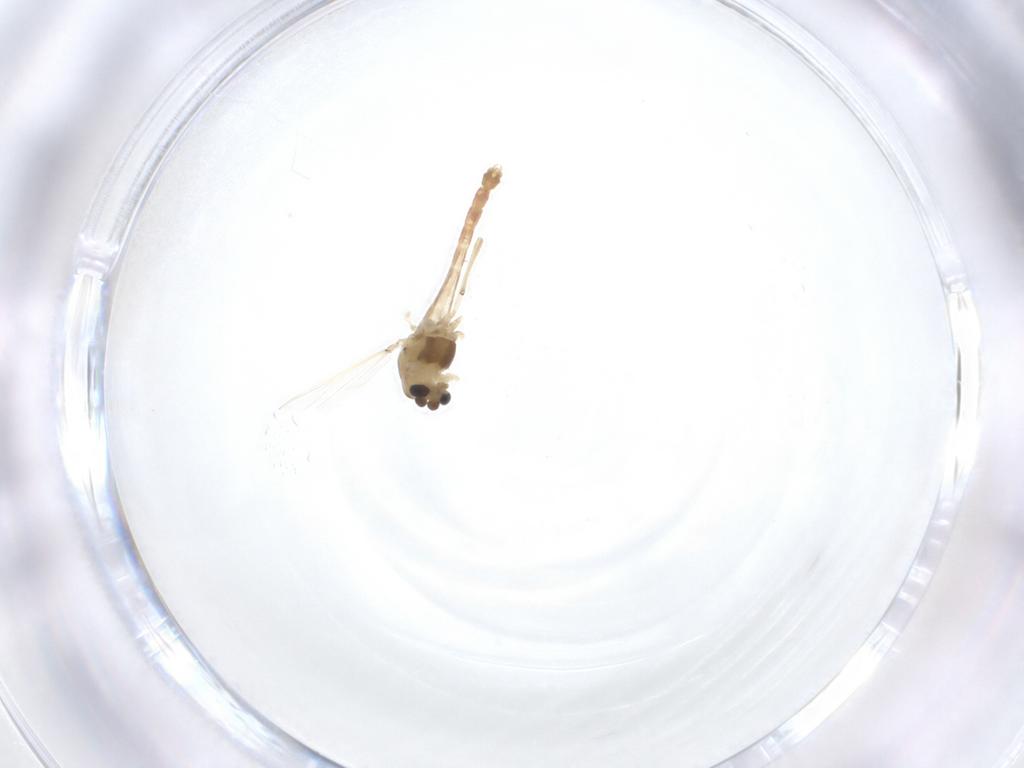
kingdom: Animalia
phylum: Arthropoda
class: Insecta
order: Diptera
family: Chironomidae
